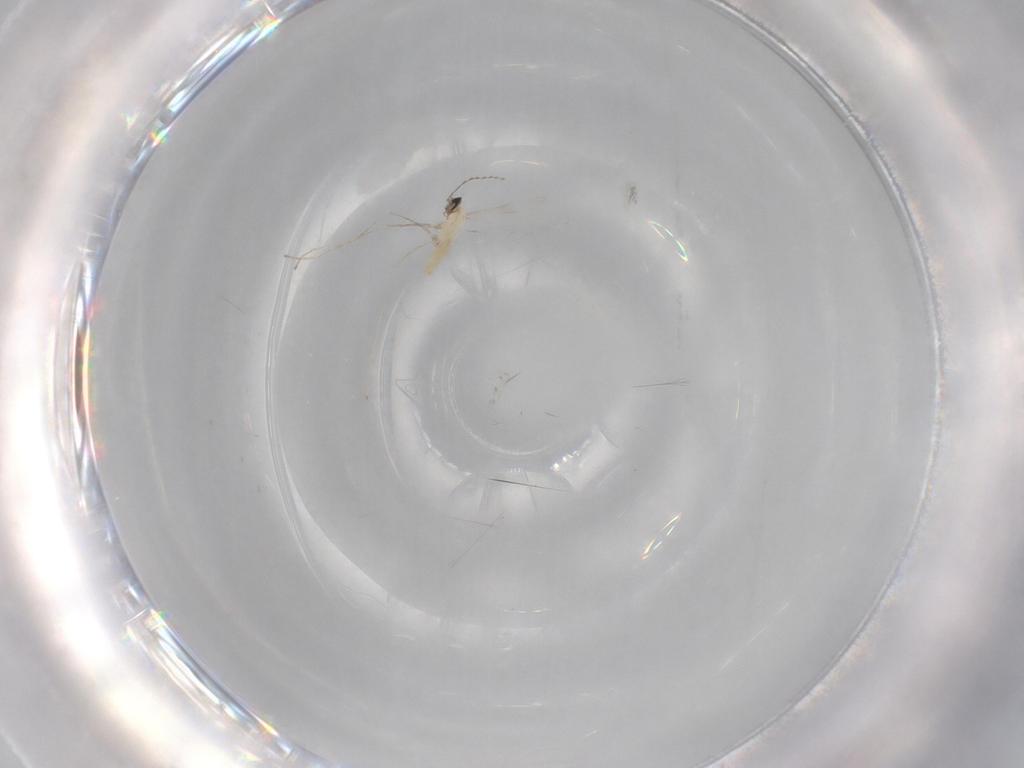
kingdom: Animalia
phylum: Arthropoda
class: Insecta
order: Diptera
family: Cecidomyiidae
